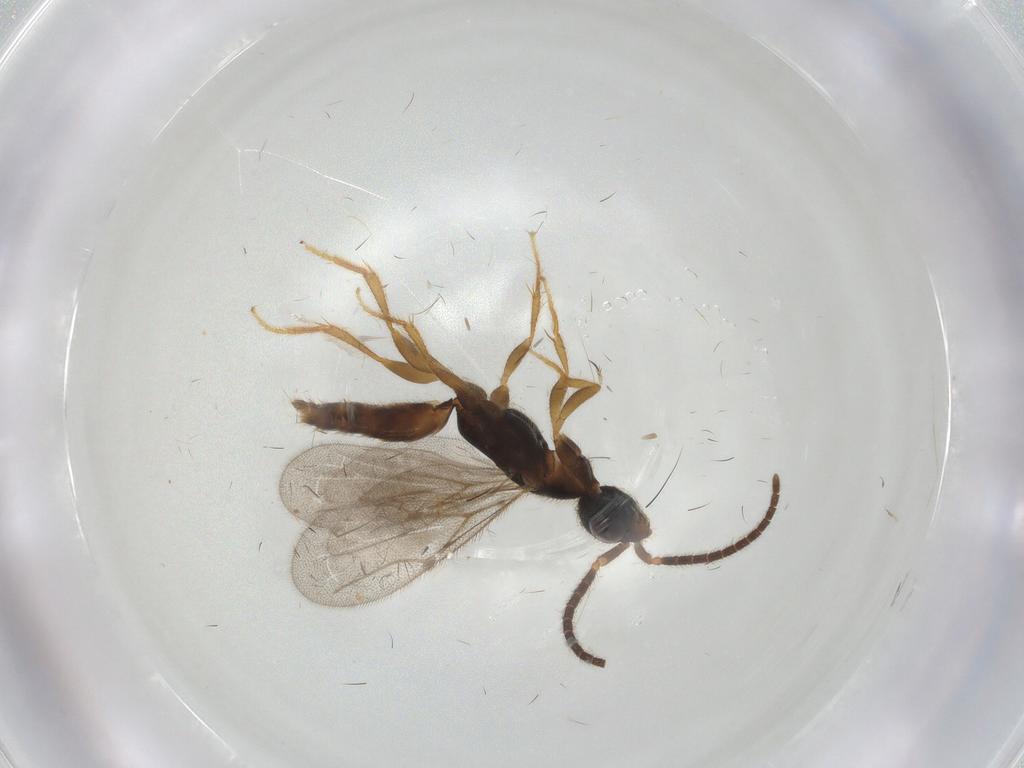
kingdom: Animalia
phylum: Arthropoda
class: Insecta
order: Hymenoptera
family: Bethylidae
